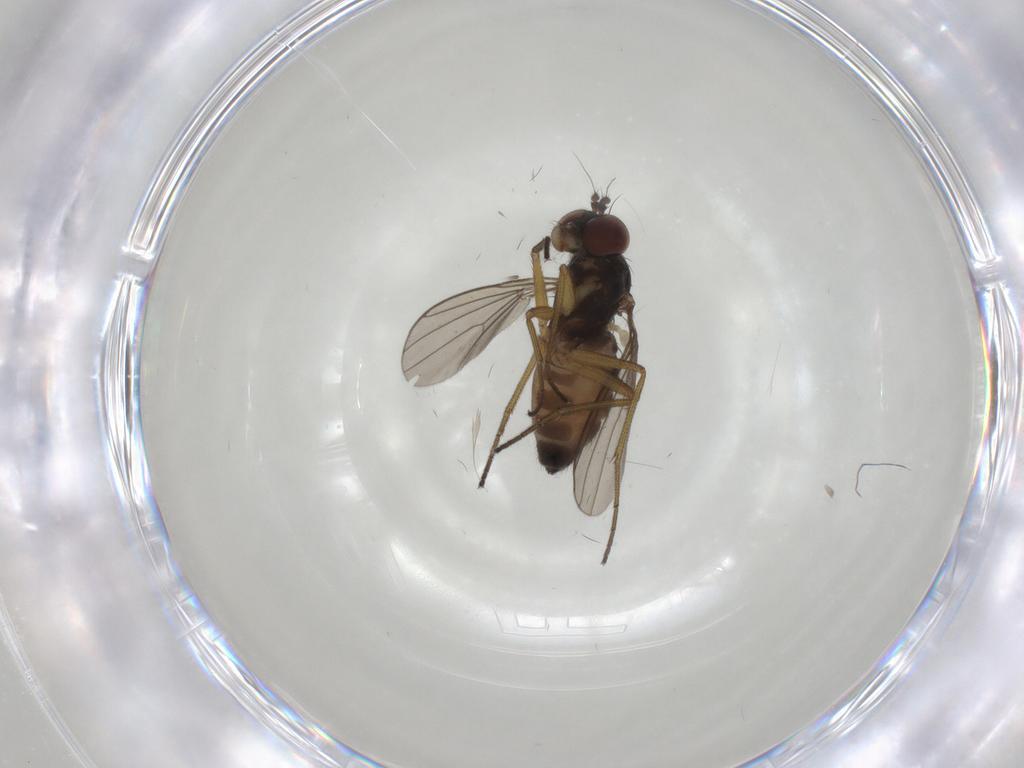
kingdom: Animalia
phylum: Arthropoda
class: Insecta
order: Diptera
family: Dolichopodidae
